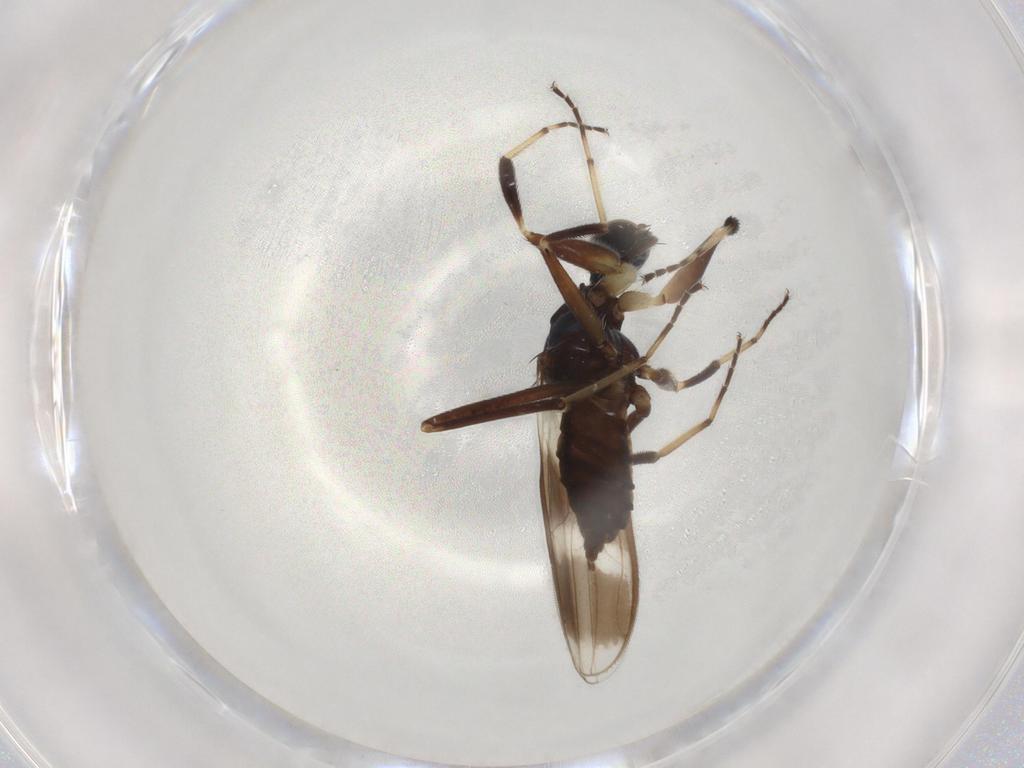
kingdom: Animalia
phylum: Arthropoda
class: Insecta
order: Diptera
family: Hybotidae
